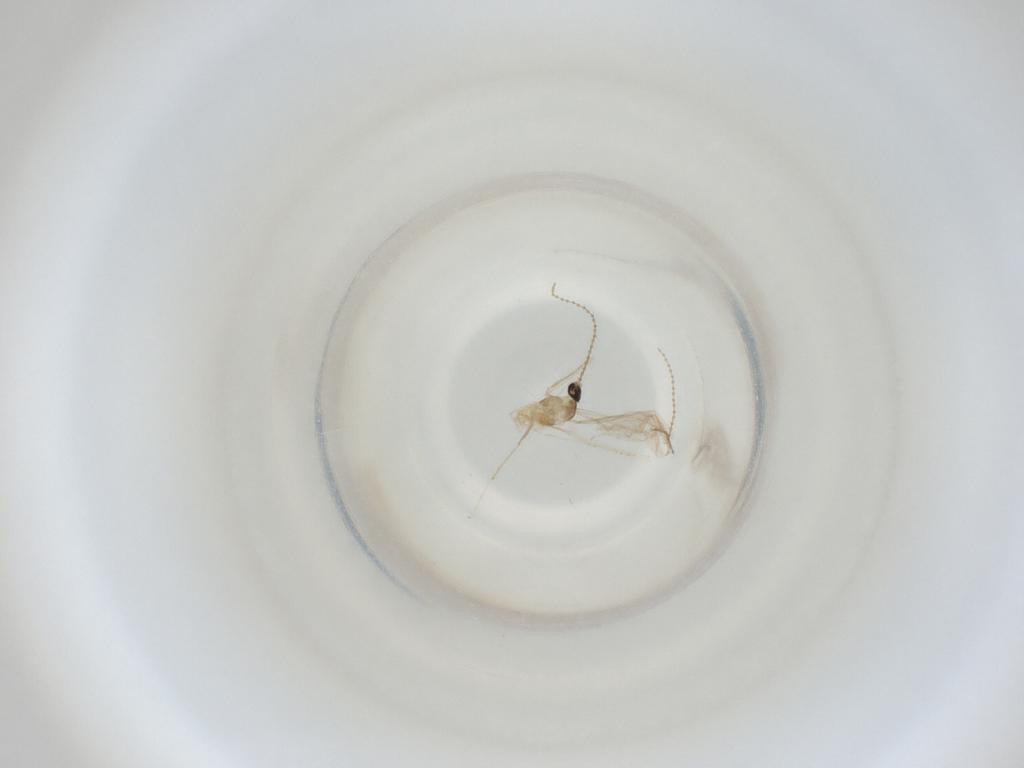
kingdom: Animalia
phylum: Arthropoda
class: Insecta
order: Diptera
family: Cecidomyiidae
